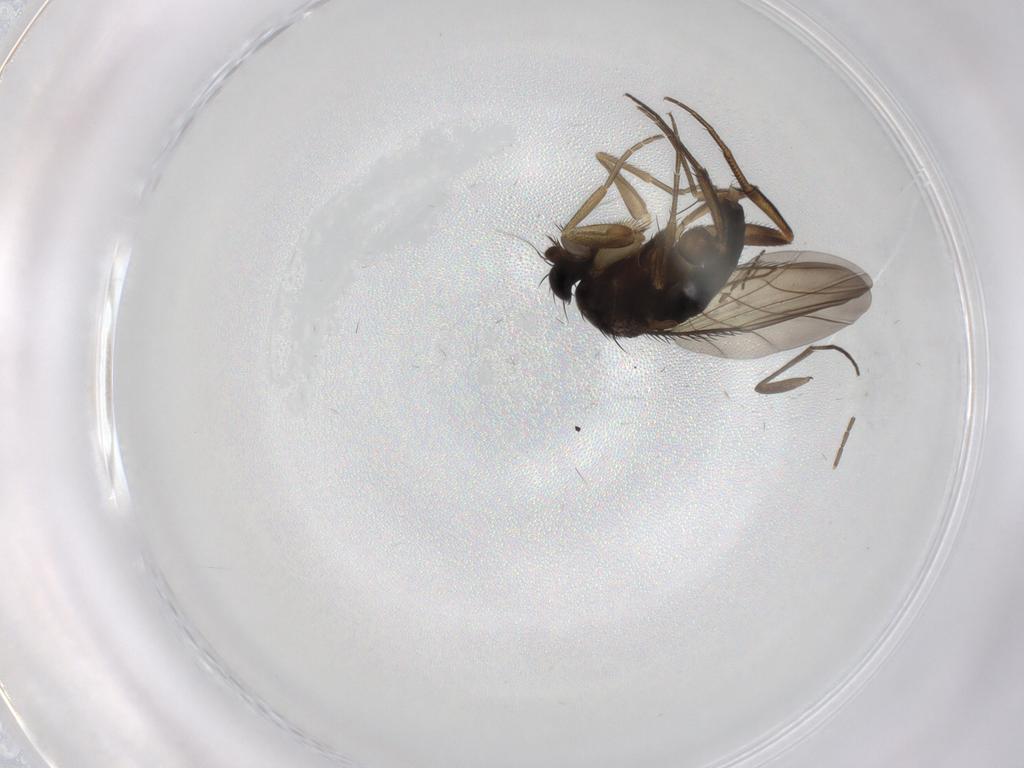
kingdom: Animalia
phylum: Arthropoda
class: Insecta
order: Diptera
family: Phoridae
